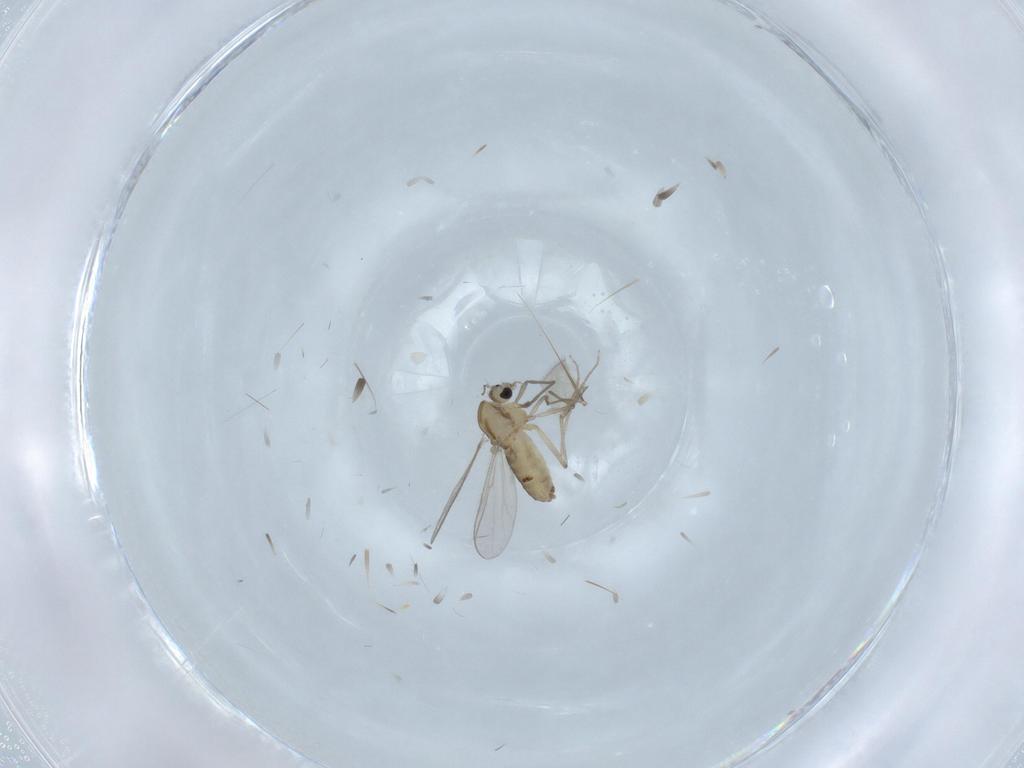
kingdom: Animalia
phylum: Arthropoda
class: Insecta
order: Diptera
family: Chironomidae
